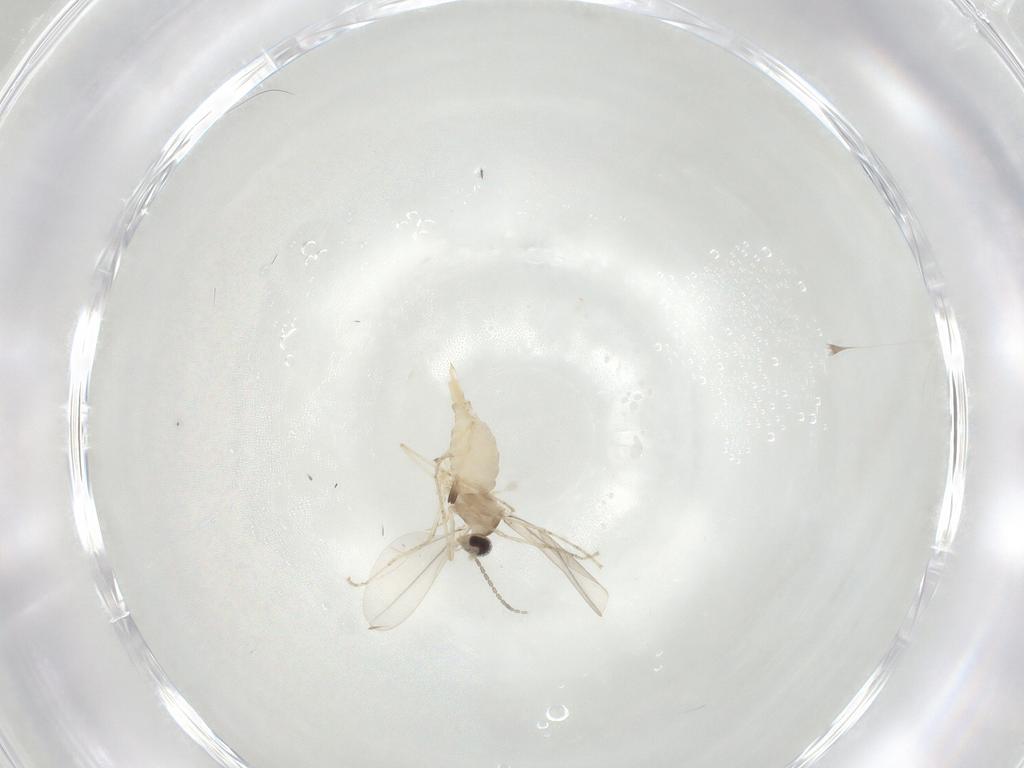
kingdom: Animalia
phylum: Arthropoda
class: Insecta
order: Diptera
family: Cecidomyiidae
